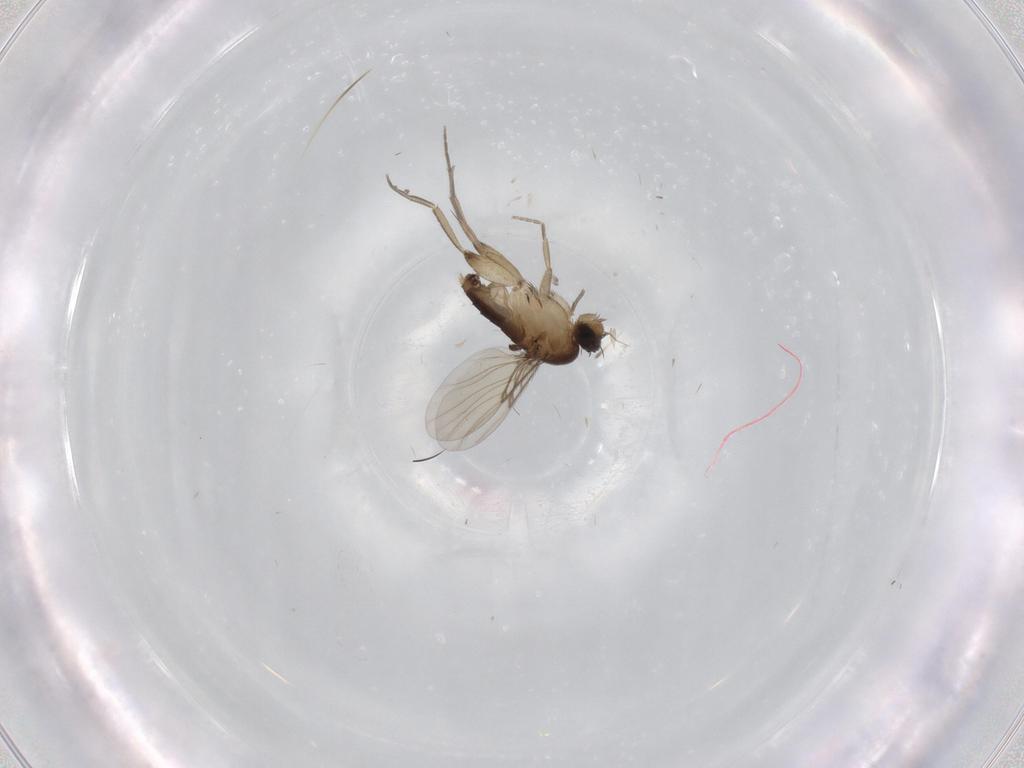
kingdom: Animalia
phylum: Arthropoda
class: Insecta
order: Diptera
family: Phoridae
